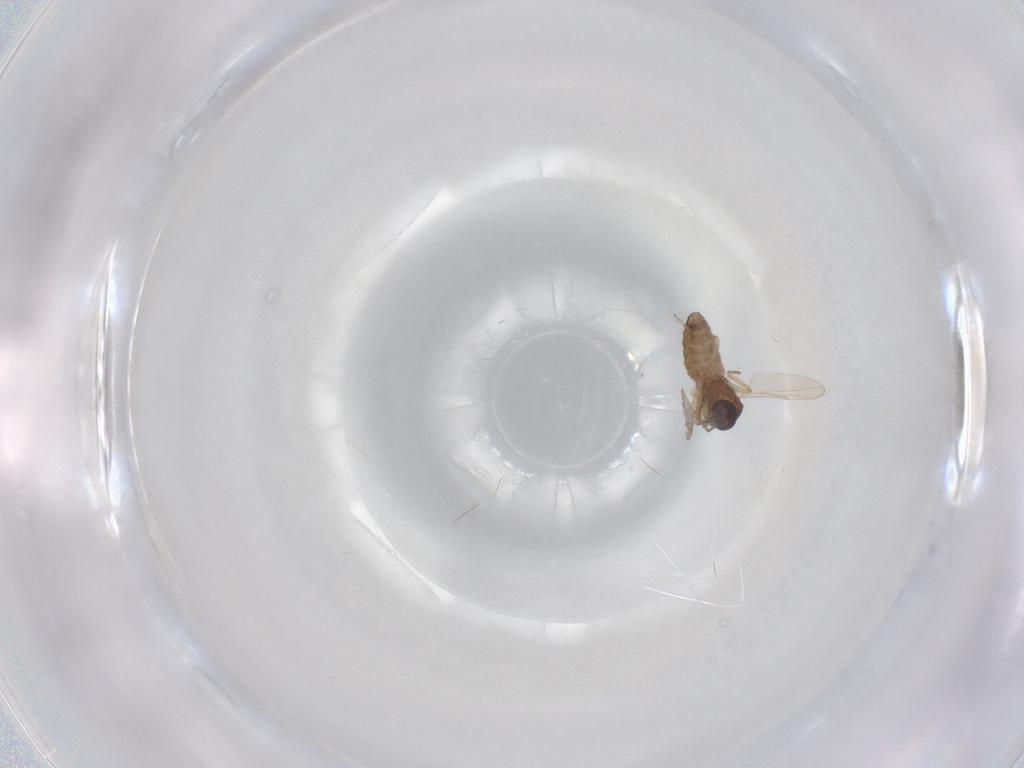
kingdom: Animalia
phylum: Arthropoda
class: Insecta
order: Diptera
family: Ceratopogonidae
